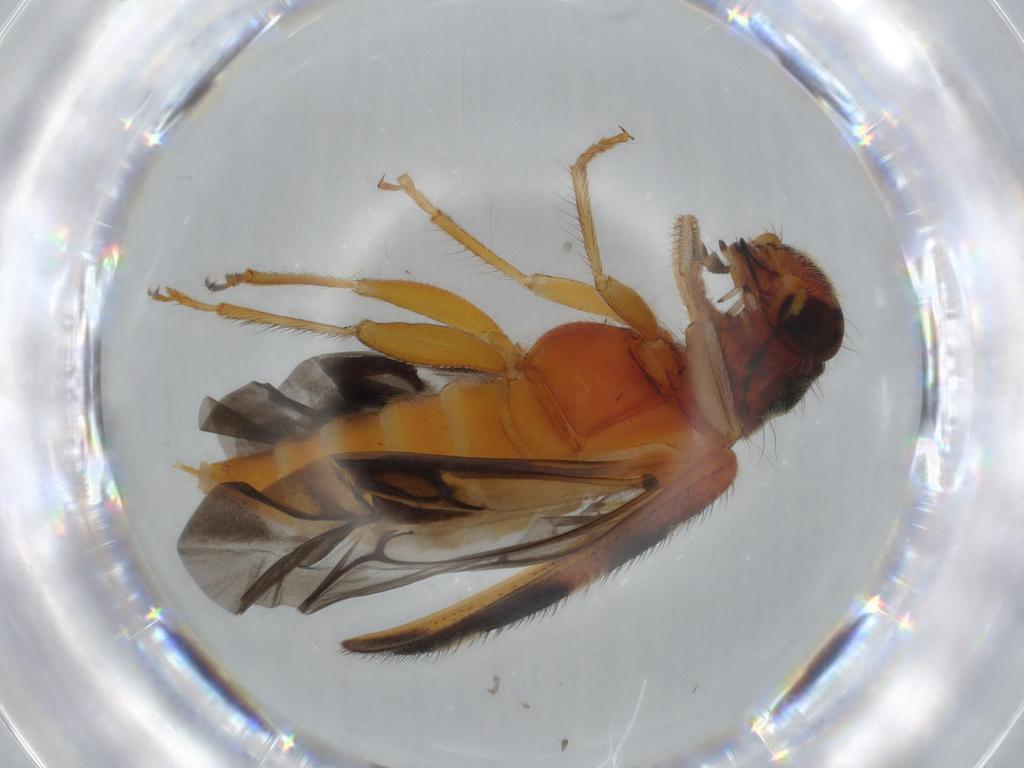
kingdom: Animalia
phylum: Arthropoda
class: Insecta
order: Coleoptera
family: Cleridae
